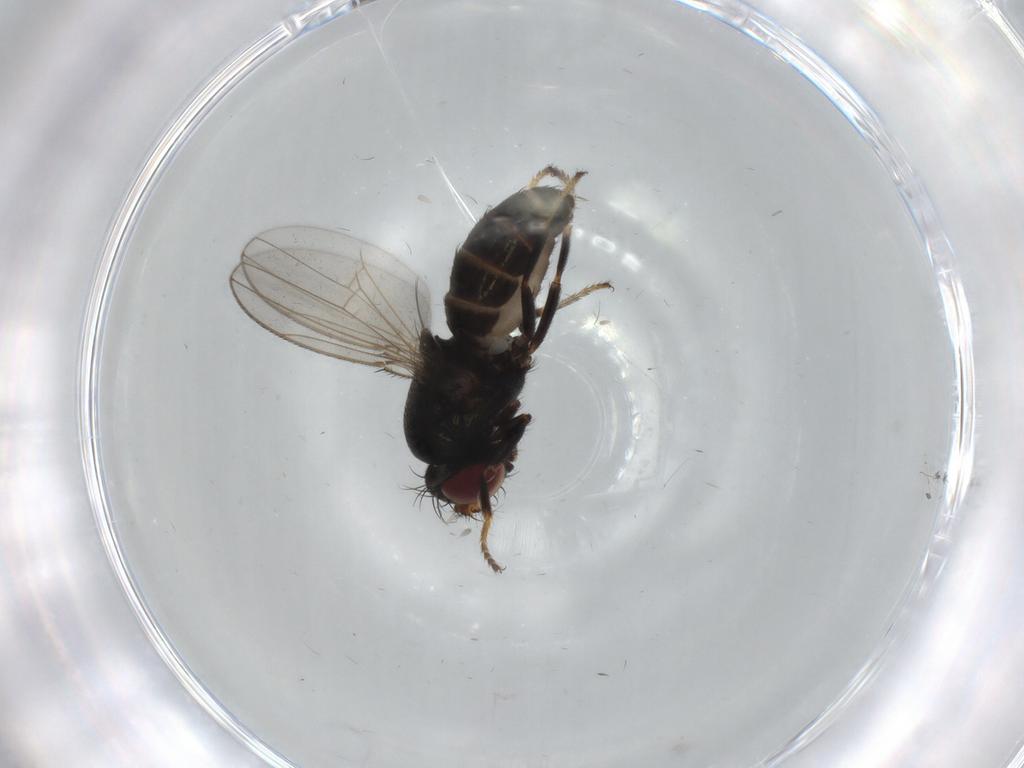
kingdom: Animalia
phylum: Arthropoda
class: Insecta
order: Diptera
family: Ephydridae
